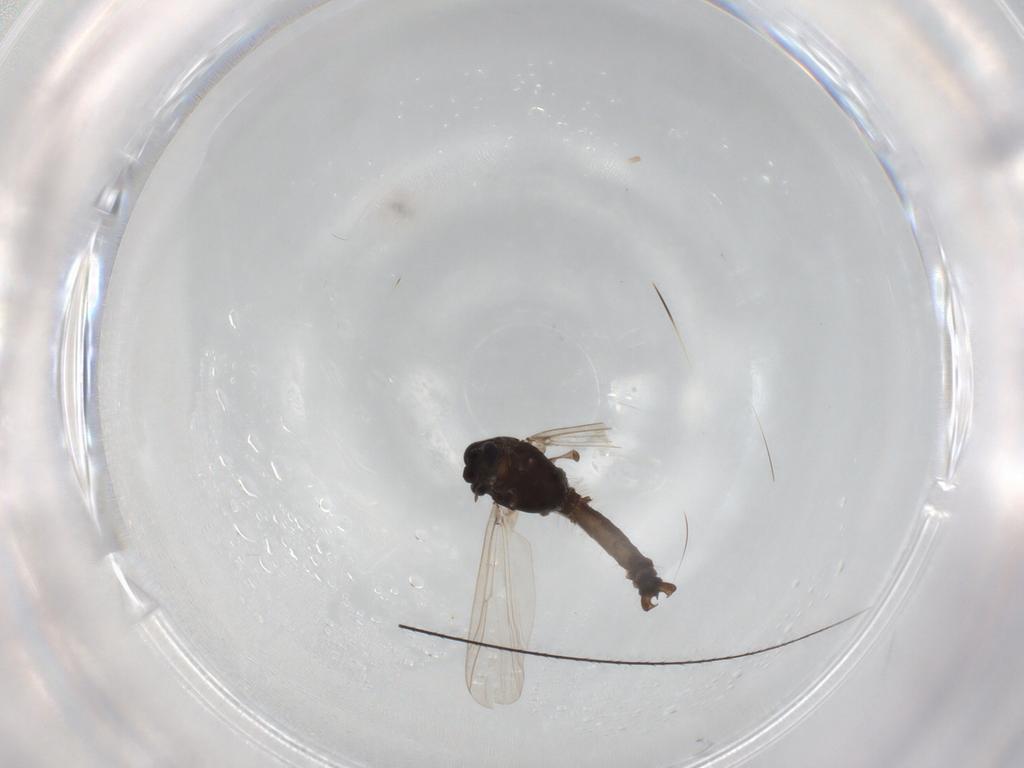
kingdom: Animalia
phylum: Arthropoda
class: Insecta
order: Diptera
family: Chironomidae
